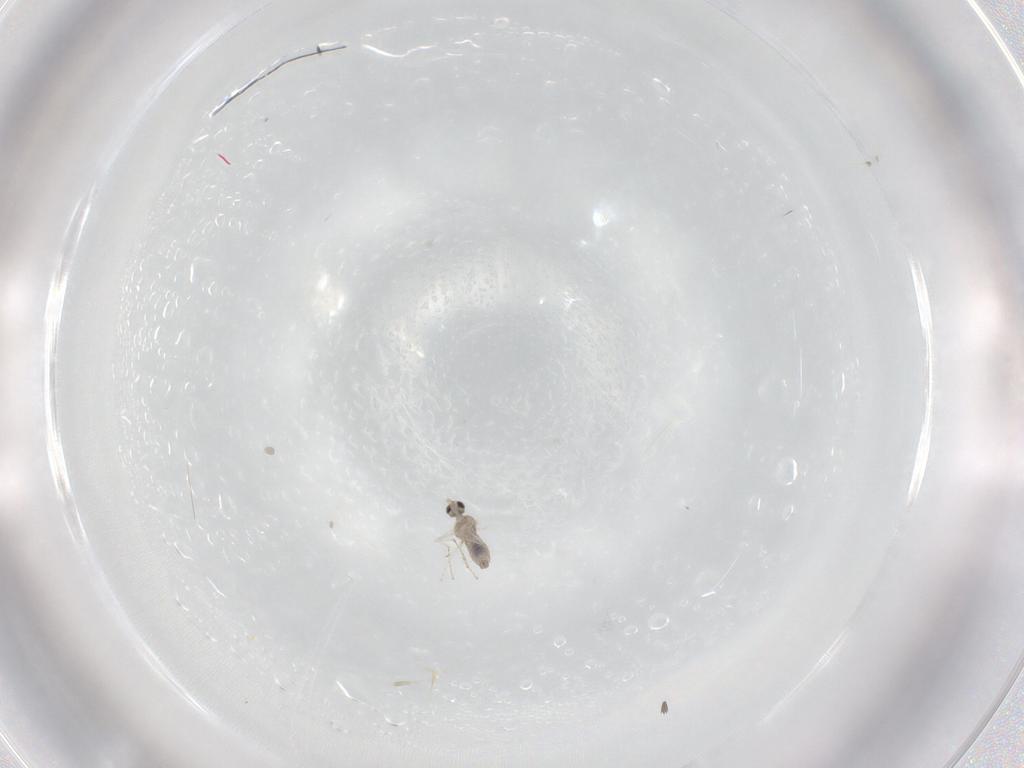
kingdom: Animalia
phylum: Arthropoda
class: Insecta
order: Diptera
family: Cecidomyiidae
